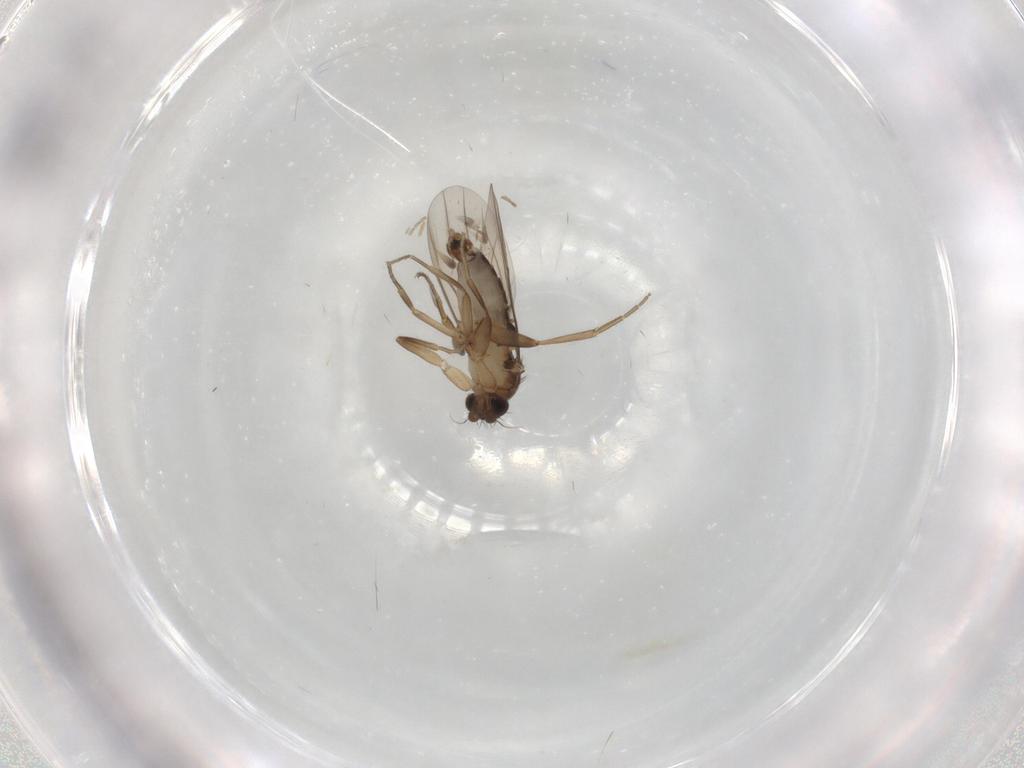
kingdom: Animalia
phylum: Arthropoda
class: Insecta
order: Diptera
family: Phoridae
